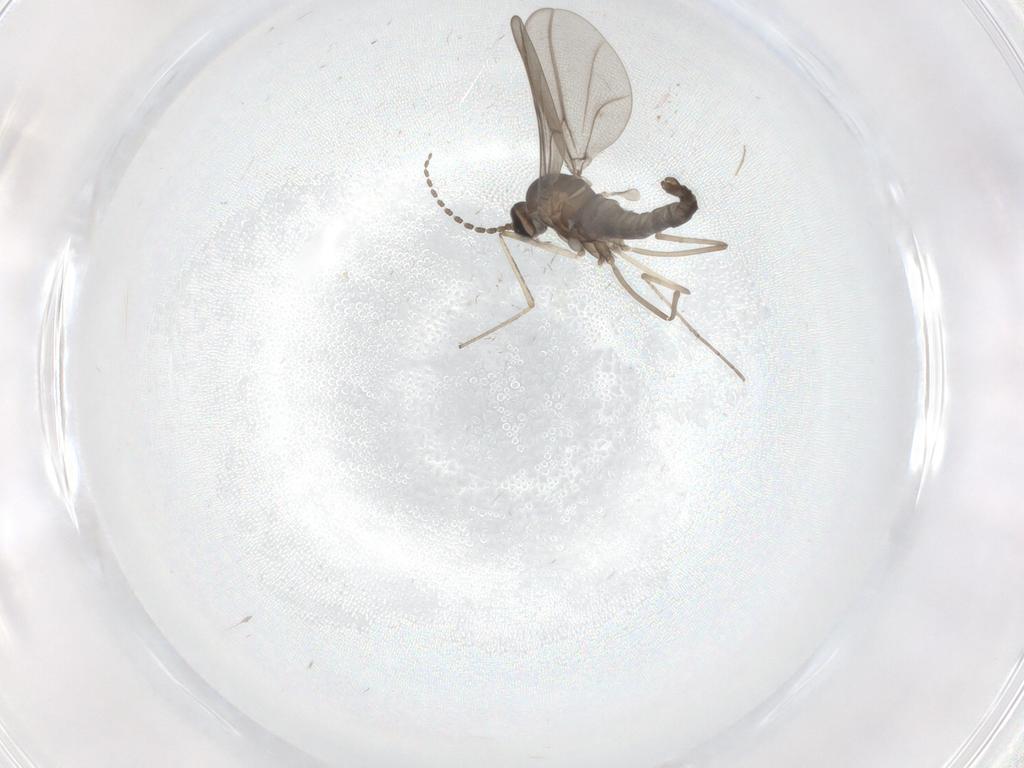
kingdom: Animalia
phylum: Arthropoda
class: Insecta
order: Diptera
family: Cecidomyiidae
